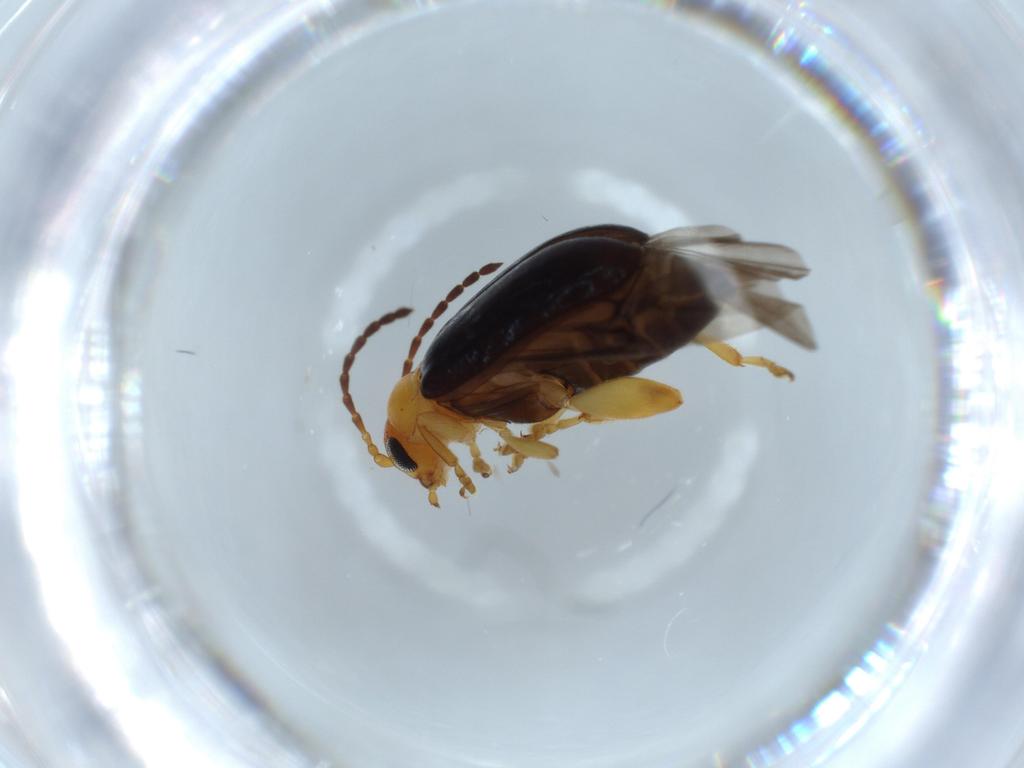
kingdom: Animalia
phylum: Arthropoda
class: Insecta
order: Coleoptera
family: Chrysomelidae
